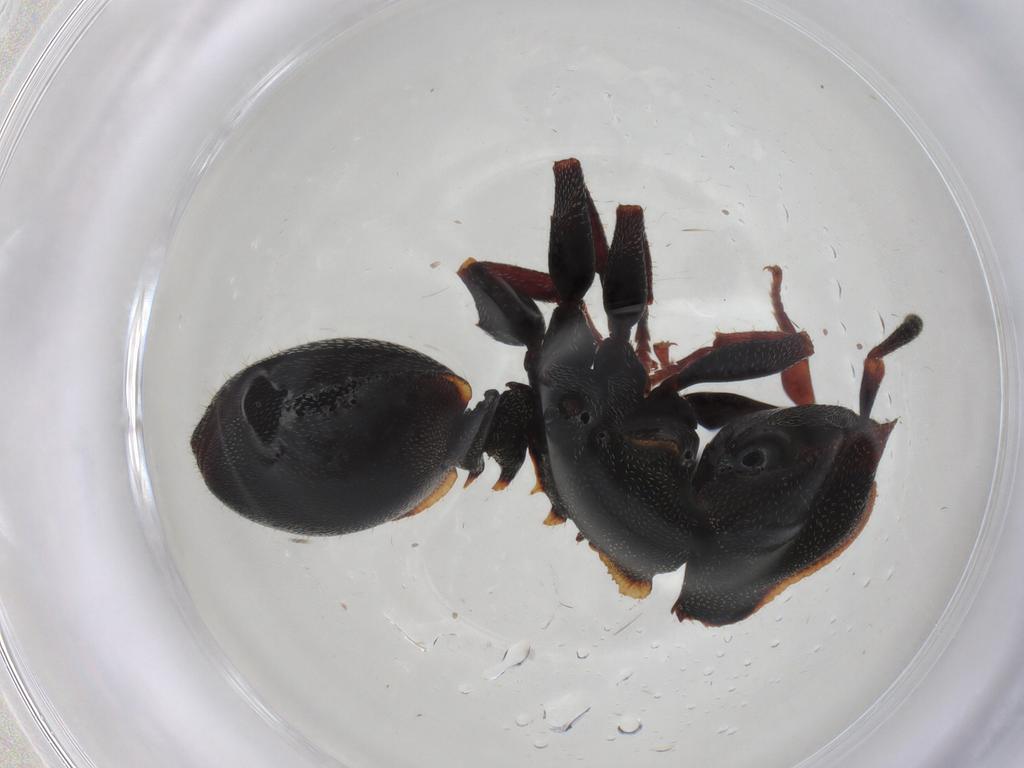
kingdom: Animalia
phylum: Arthropoda
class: Insecta
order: Hymenoptera
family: Formicidae
